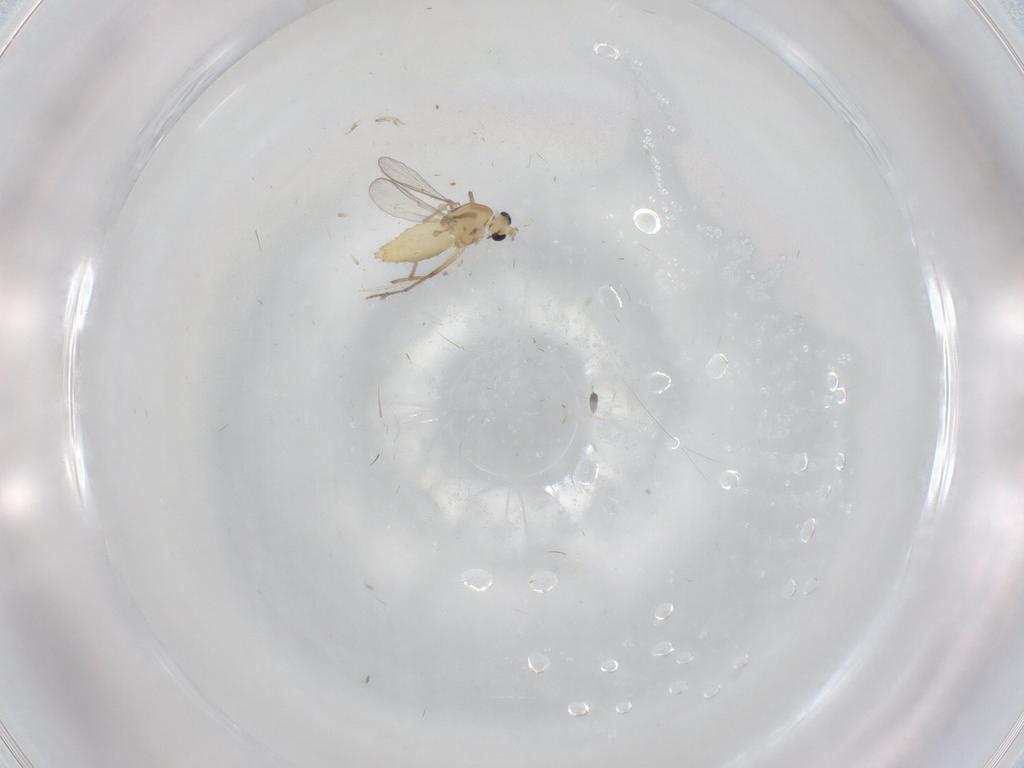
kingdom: Animalia
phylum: Arthropoda
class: Insecta
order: Diptera
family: Chironomidae
